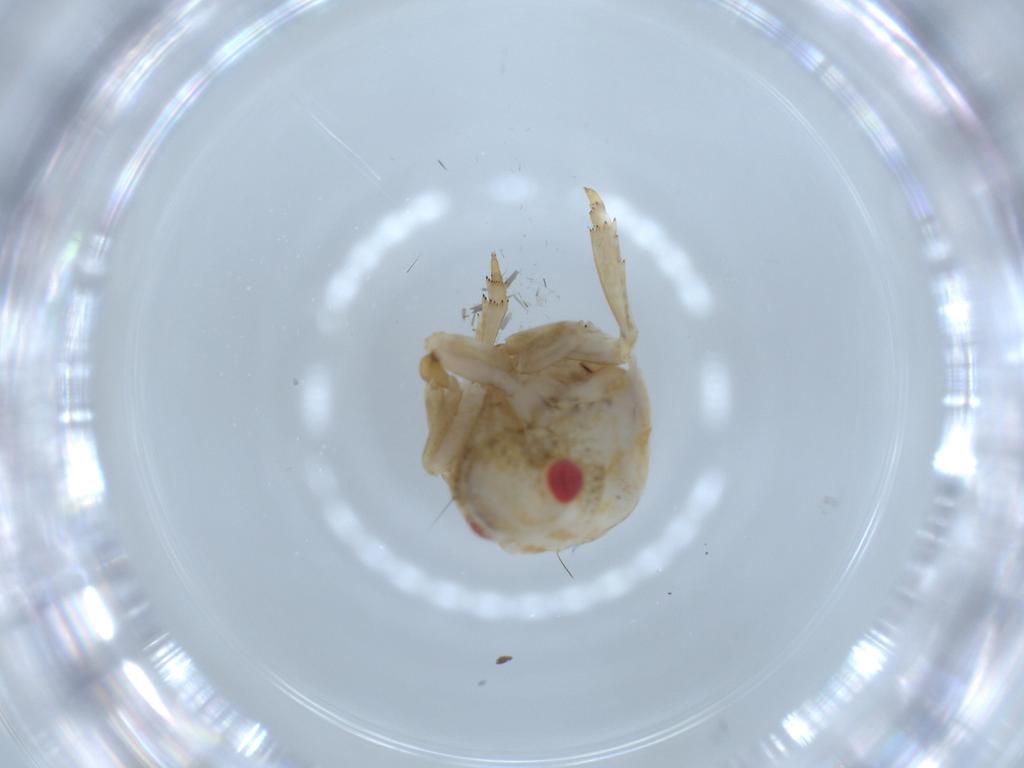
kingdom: Animalia
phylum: Arthropoda
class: Insecta
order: Hemiptera
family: Acanaloniidae
